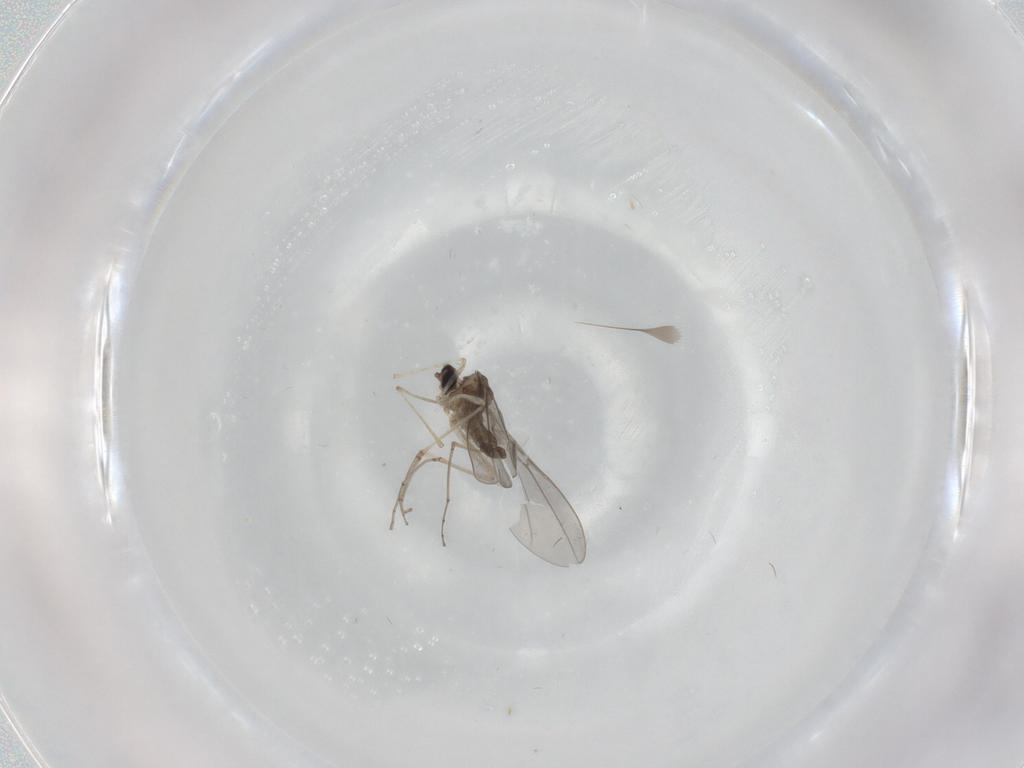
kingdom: Animalia
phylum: Arthropoda
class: Insecta
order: Diptera
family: Cecidomyiidae
